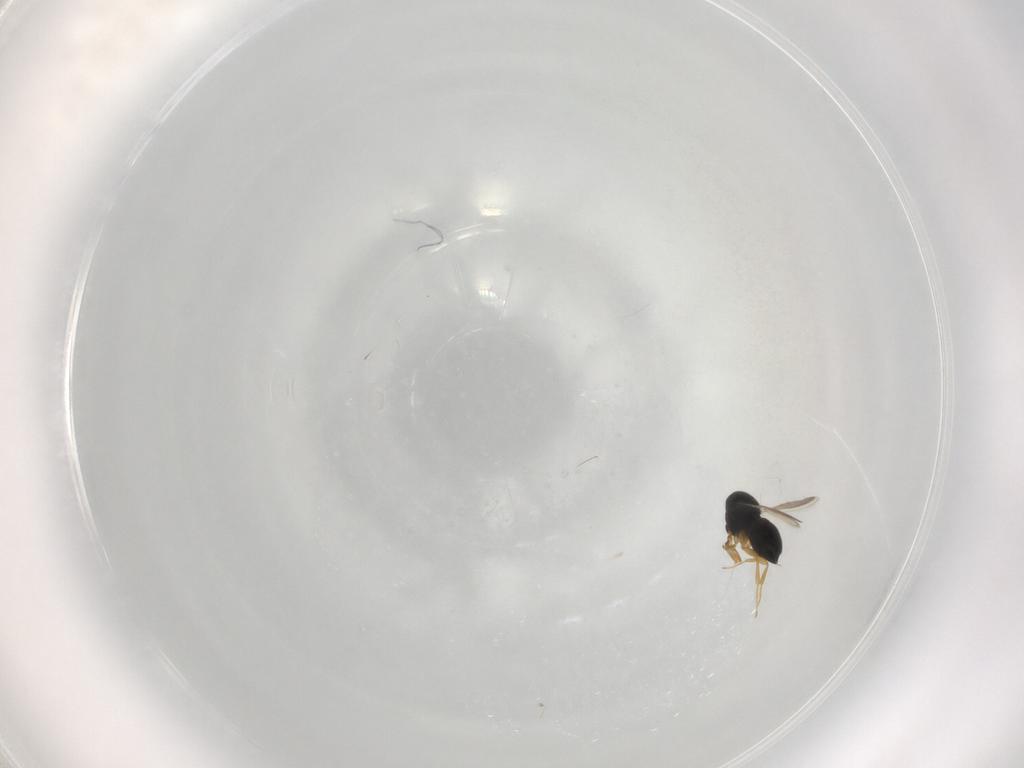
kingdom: Animalia
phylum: Arthropoda
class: Insecta
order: Hymenoptera
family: Scelionidae
